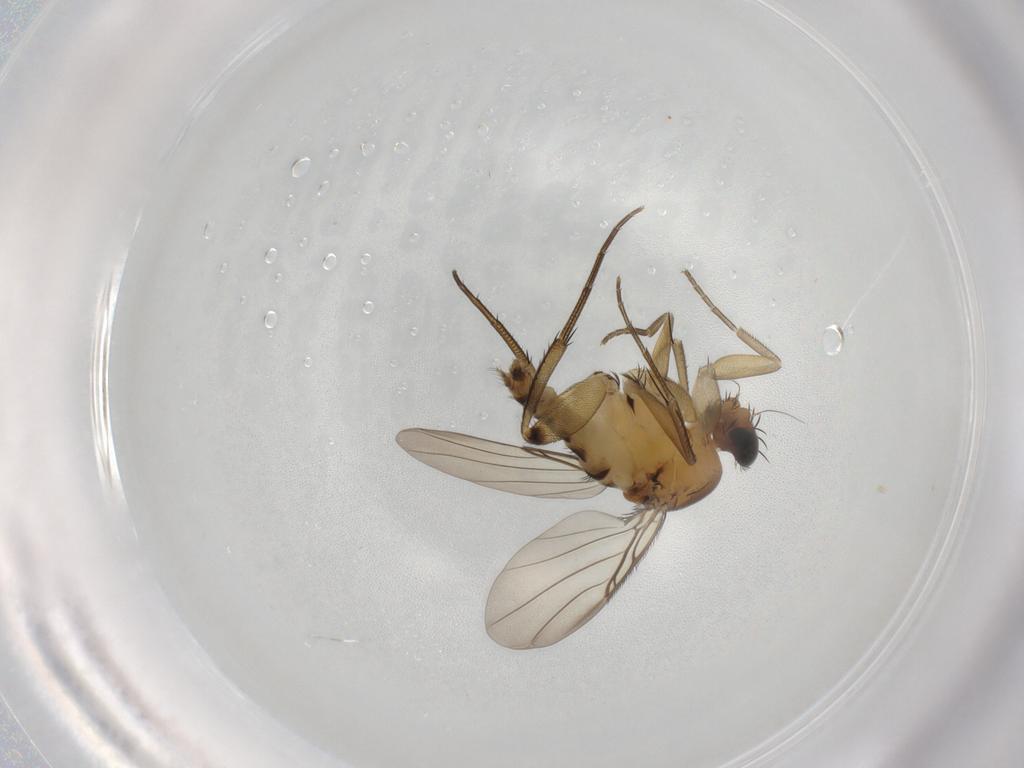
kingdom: Animalia
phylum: Arthropoda
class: Insecta
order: Diptera
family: Phoridae
